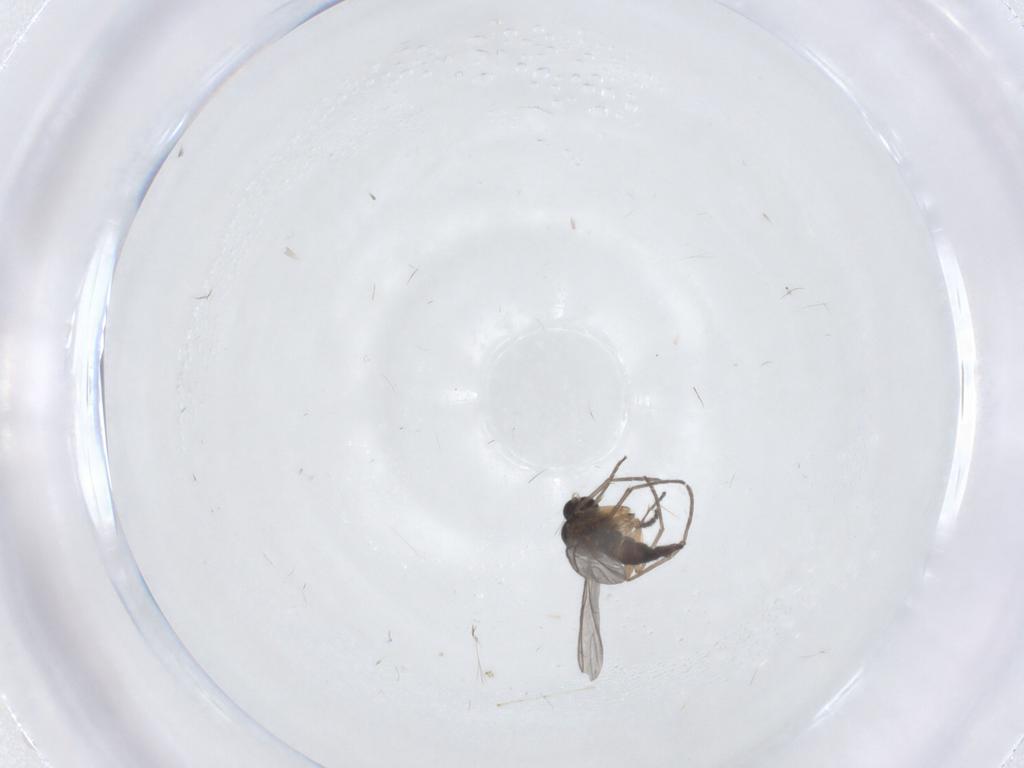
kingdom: Animalia
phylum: Arthropoda
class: Insecta
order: Diptera
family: Sciaridae
